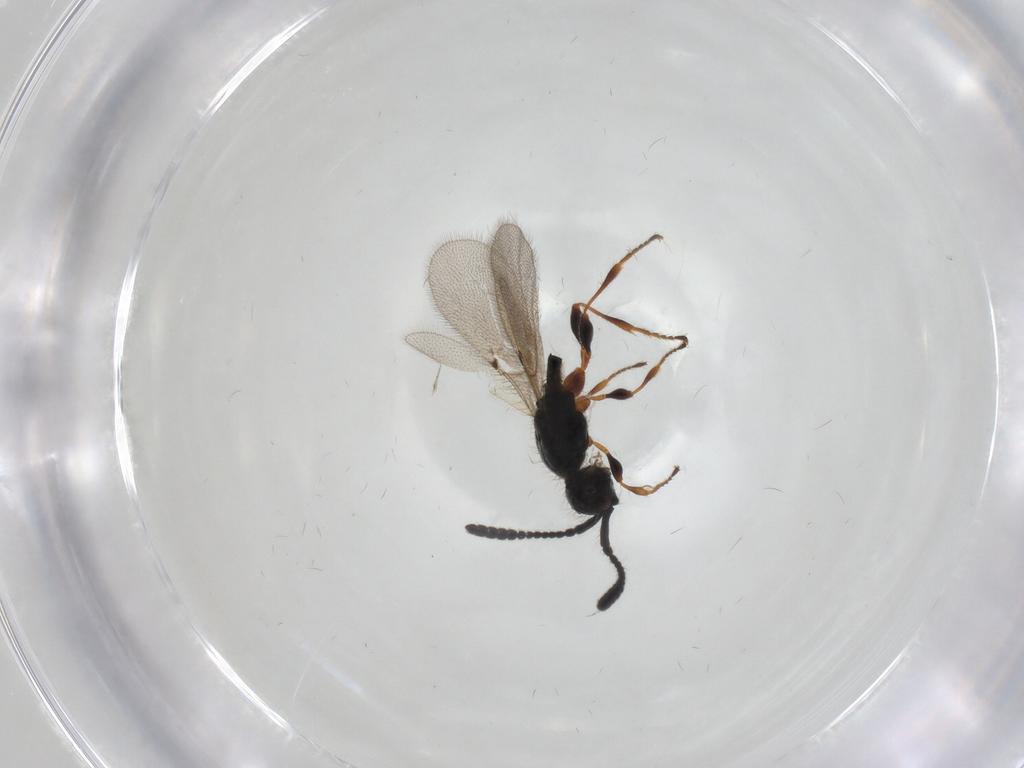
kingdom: Animalia
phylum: Arthropoda
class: Insecta
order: Hymenoptera
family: Diapriidae
